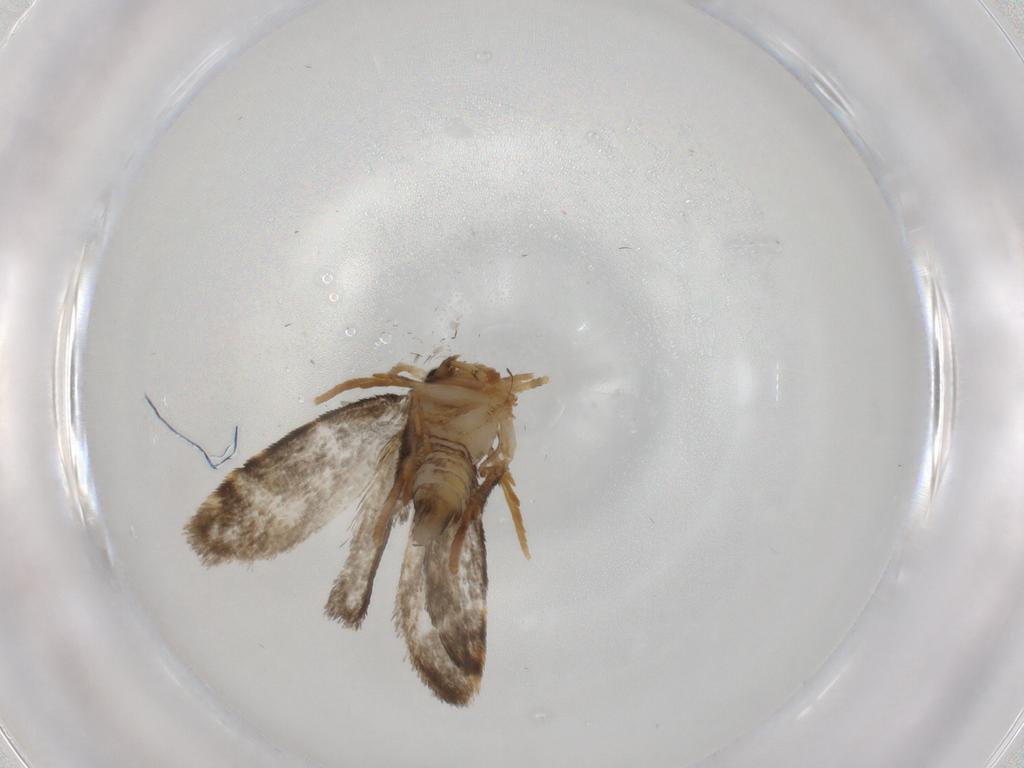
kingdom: Animalia
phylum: Arthropoda
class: Insecta
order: Lepidoptera
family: Psychidae
